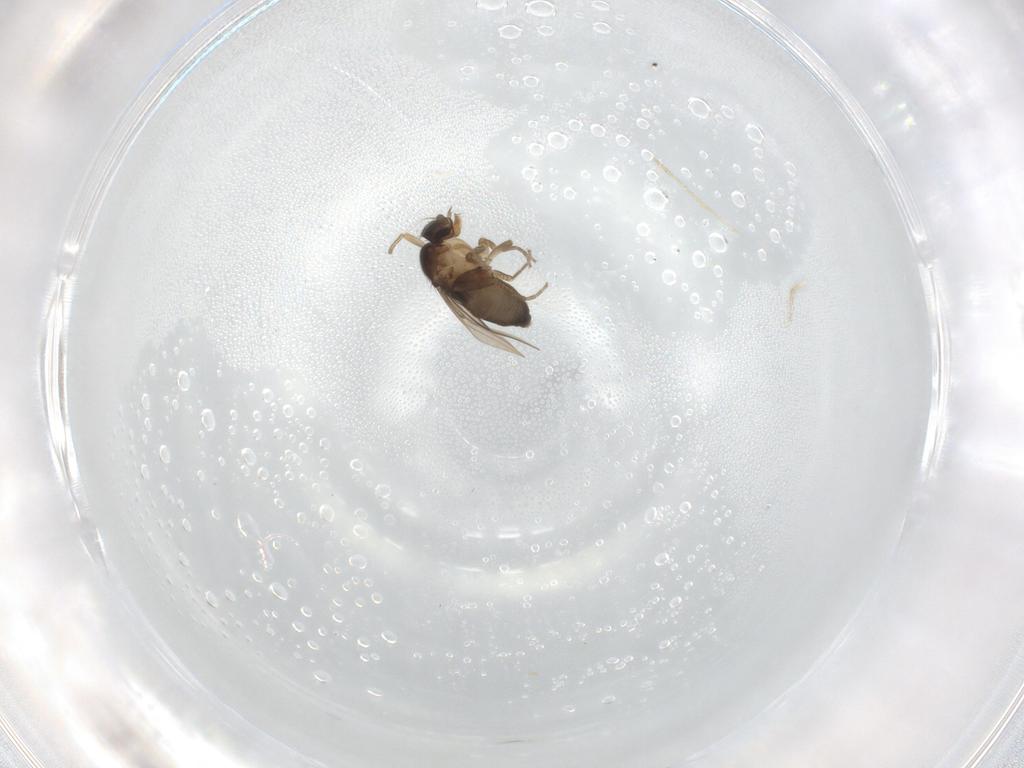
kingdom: Animalia
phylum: Arthropoda
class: Insecta
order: Diptera
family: Phoridae
